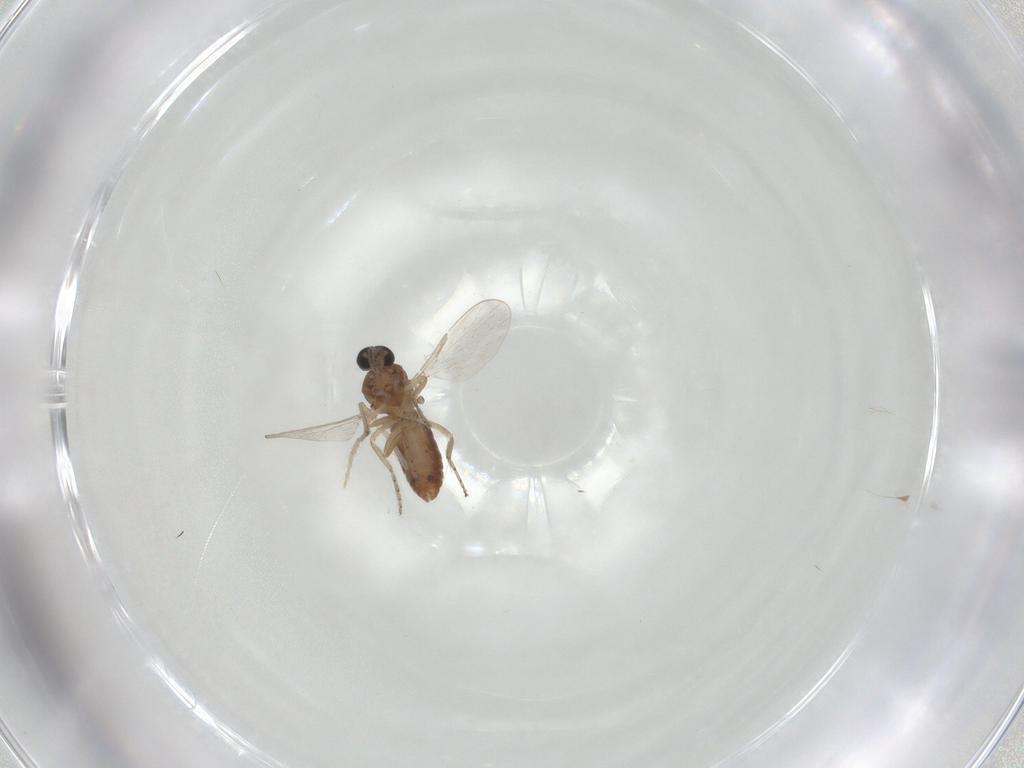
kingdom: Animalia
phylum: Arthropoda
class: Insecta
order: Diptera
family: Ceratopogonidae
